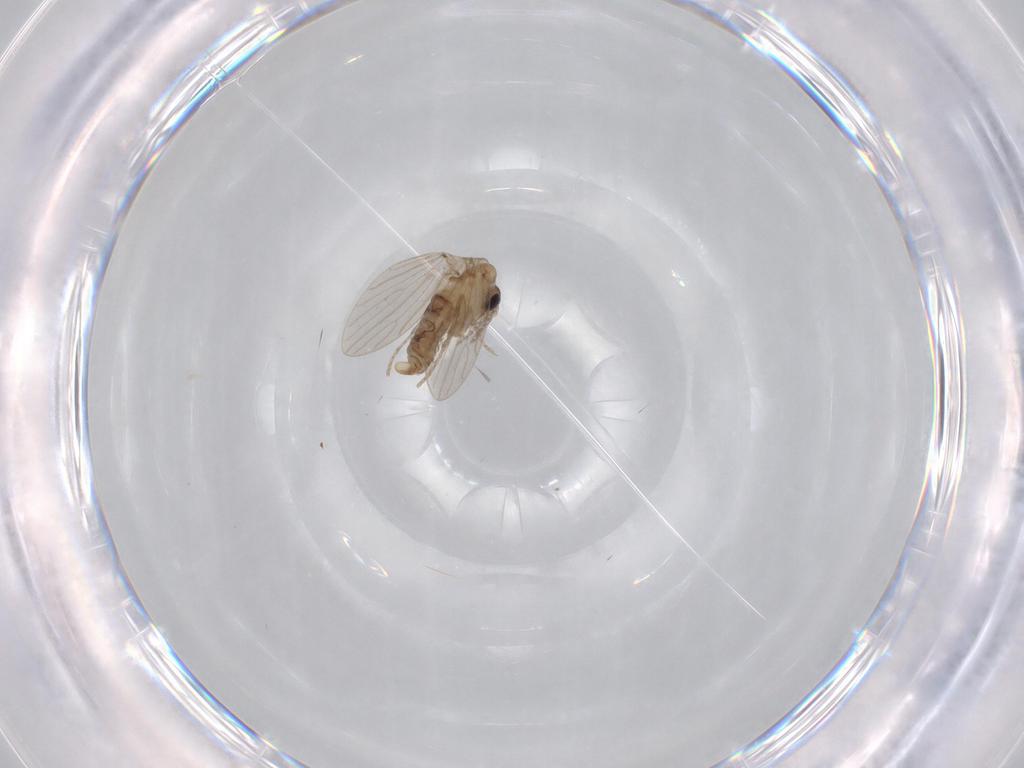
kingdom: Animalia
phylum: Arthropoda
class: Insecta
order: Diptera
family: Psychodidae
